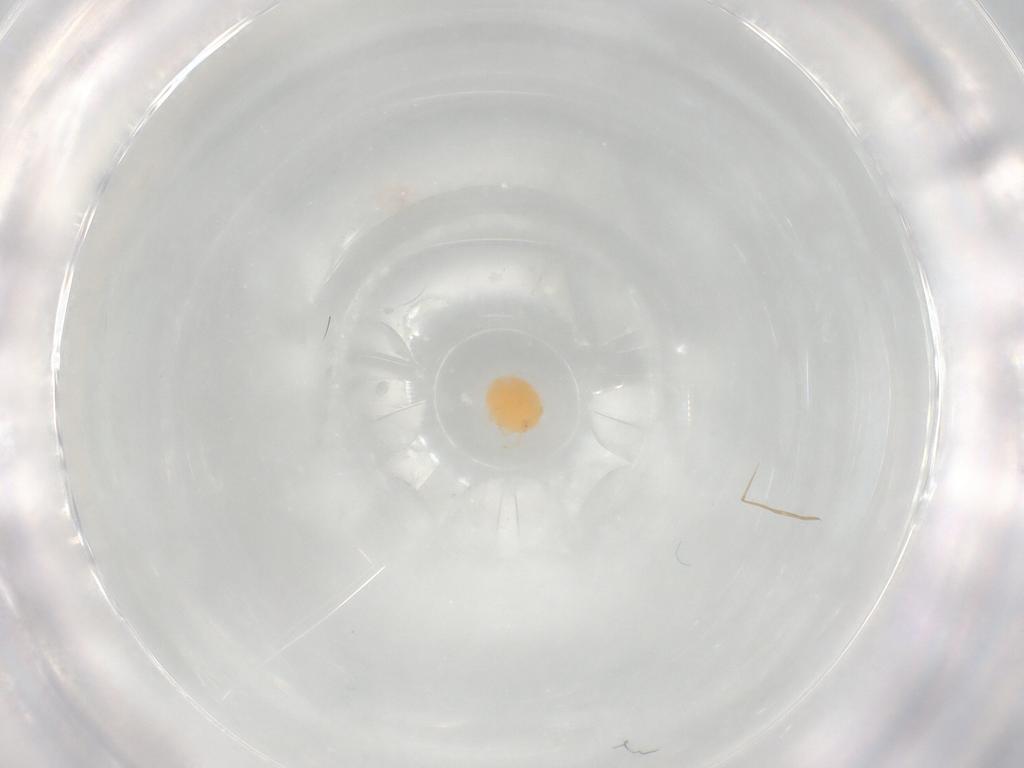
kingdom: Animalia
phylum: Arthropoda
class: Arachnida
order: Trombidiformes
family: Hydryphantidae
